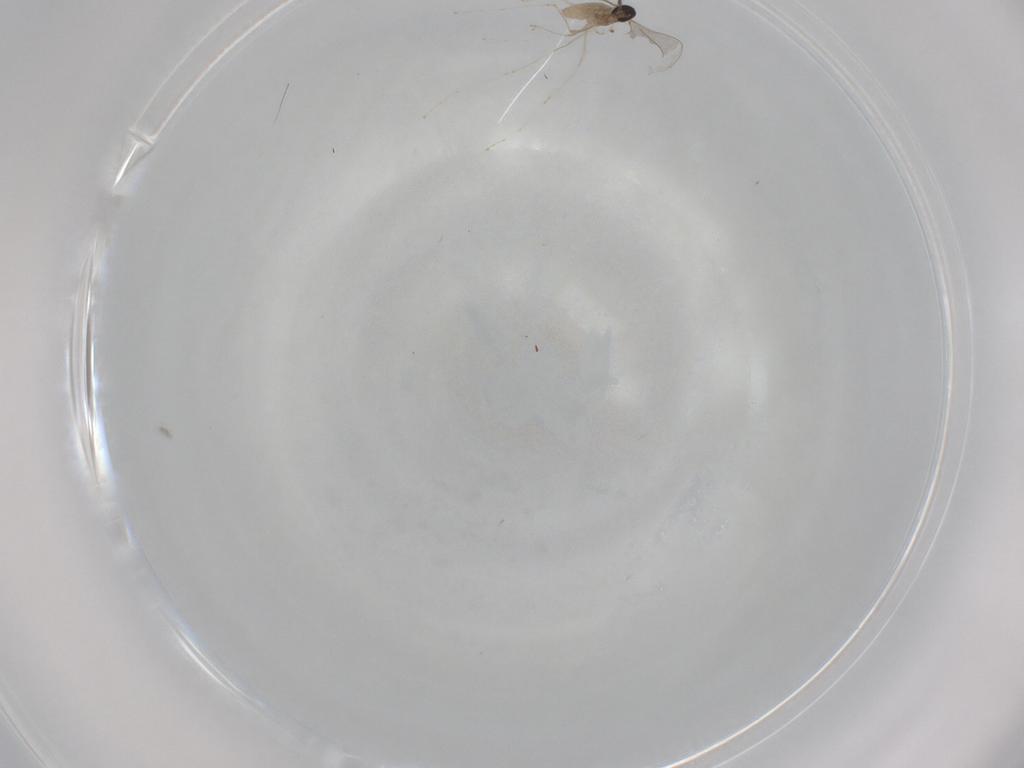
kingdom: Animalia
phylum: Arthropoda
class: Insecta
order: Diptera
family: Cecidomyiidae
